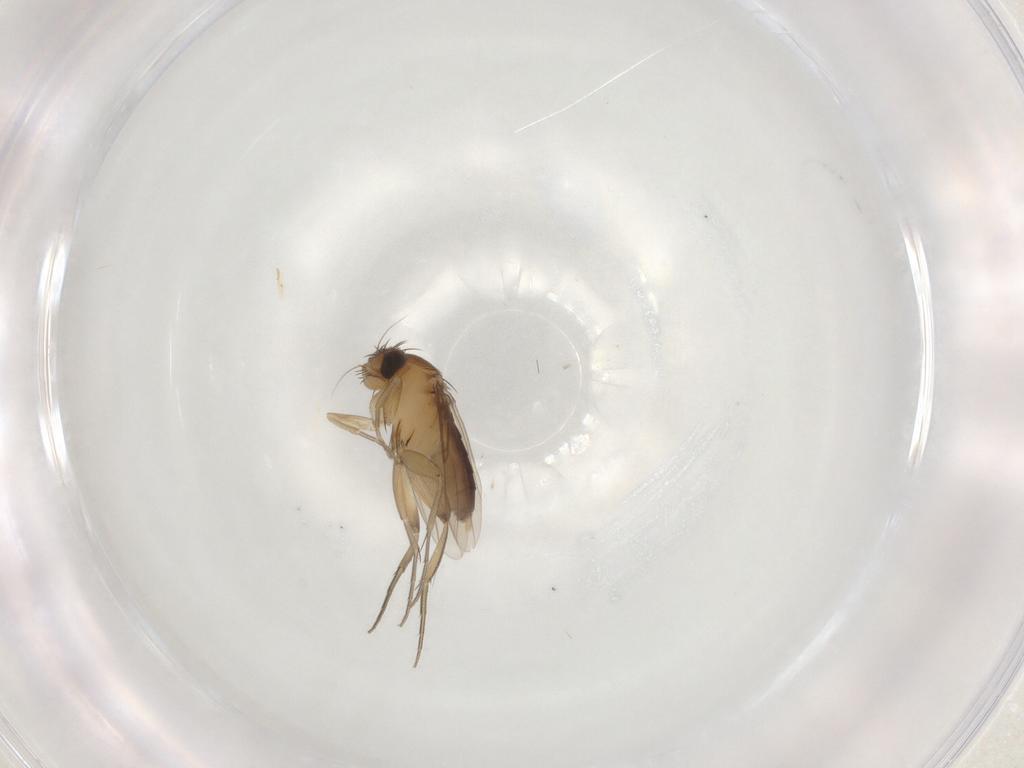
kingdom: Animalia
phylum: Arthropoda
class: Insecta
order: Diptera
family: Phoridae
